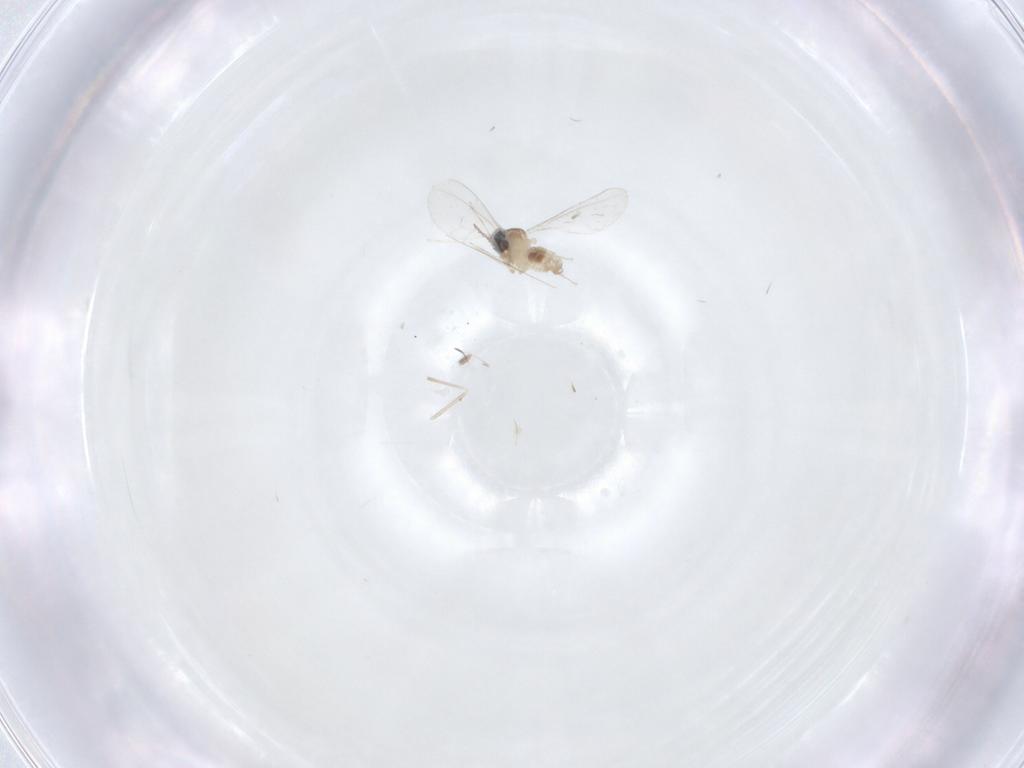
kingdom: Animalia
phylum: Arthropoda
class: Insecta
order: Diptera
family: Cecidomyiidae
